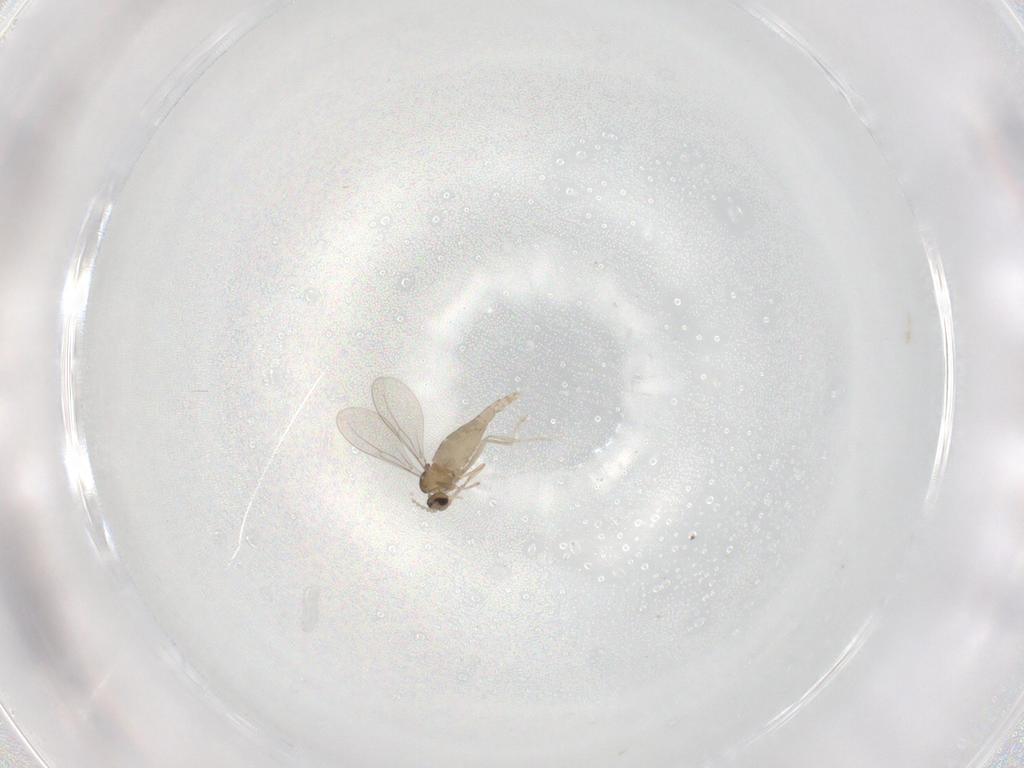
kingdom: Animalia
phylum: Arthropoda
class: Insecta
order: Diptera
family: Cecidomyiidae
